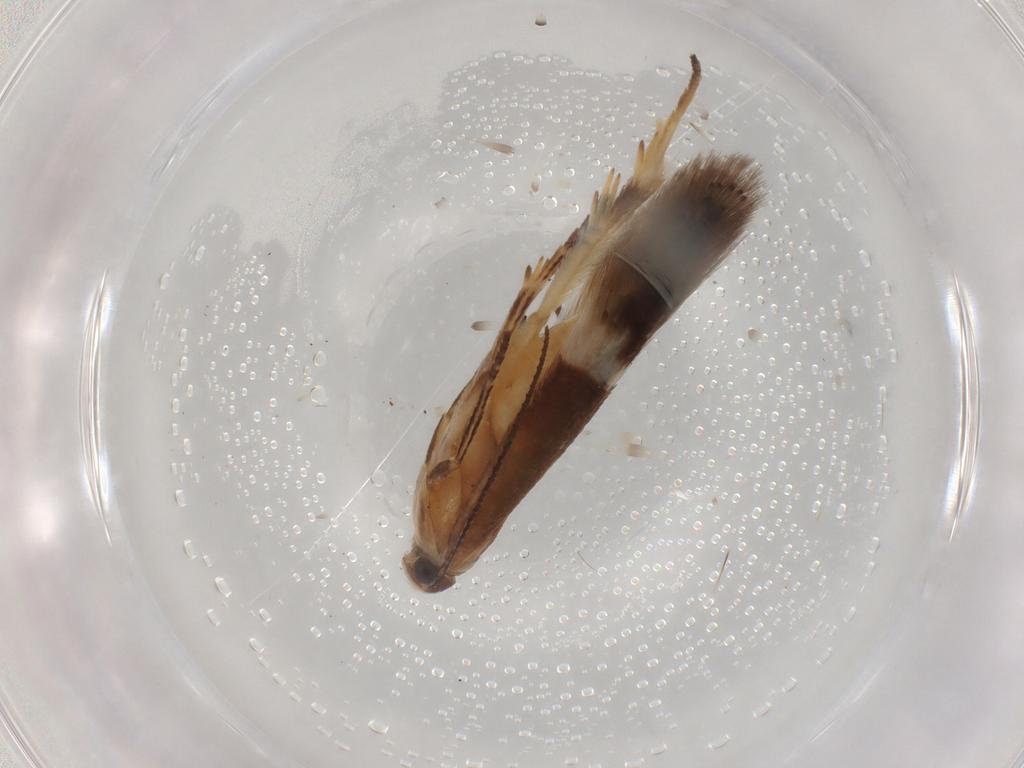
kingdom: Animalia
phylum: Arthropoda
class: Insecta
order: Lepidoptera
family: Gelechiidae
